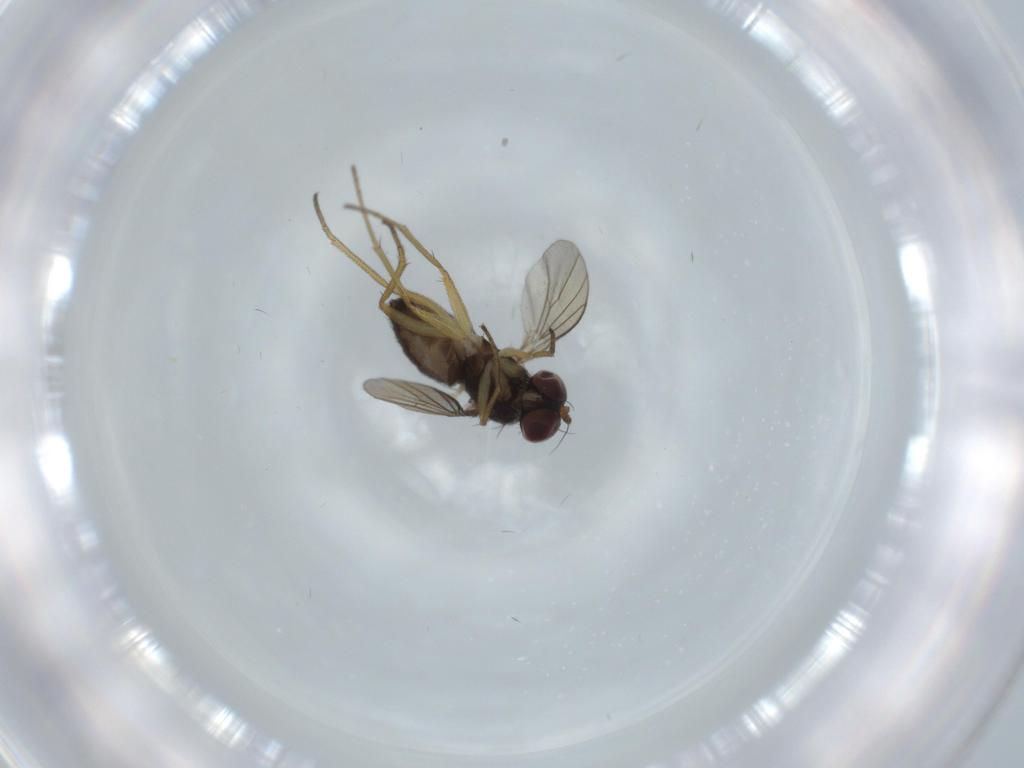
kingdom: Animalia
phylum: Arthropoda
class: Insecta
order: Diptera
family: Dolichopodidae
